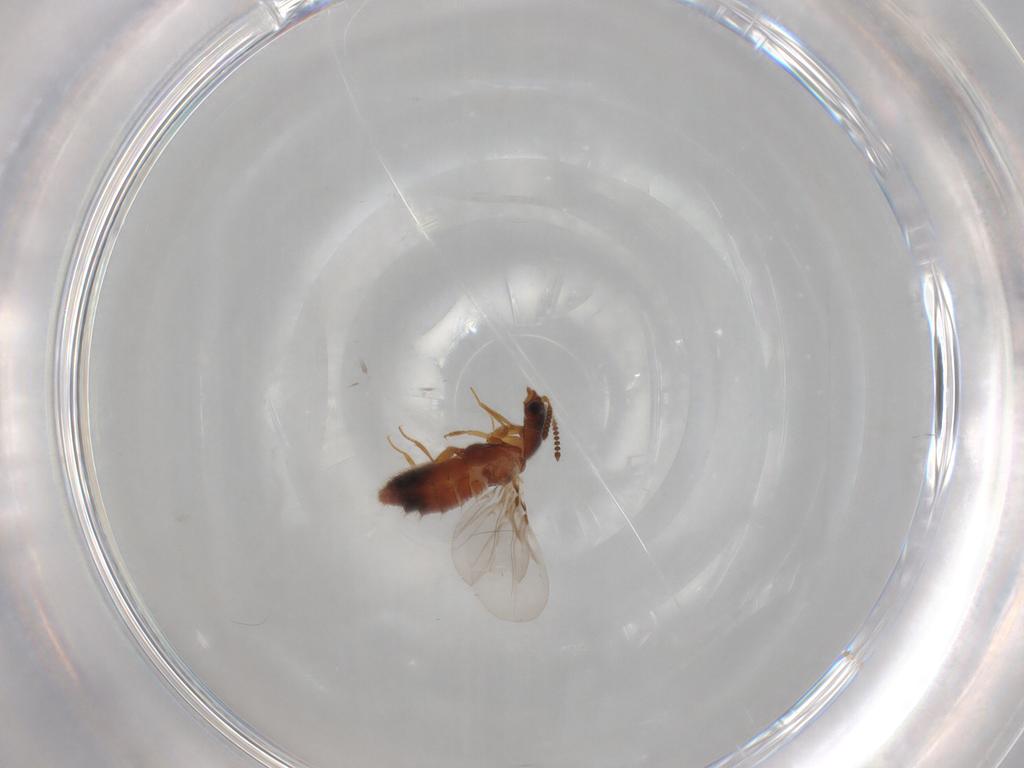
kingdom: Animalia
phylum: Arthropoda
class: Insecta
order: Coleoptera
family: Staphylinidae
